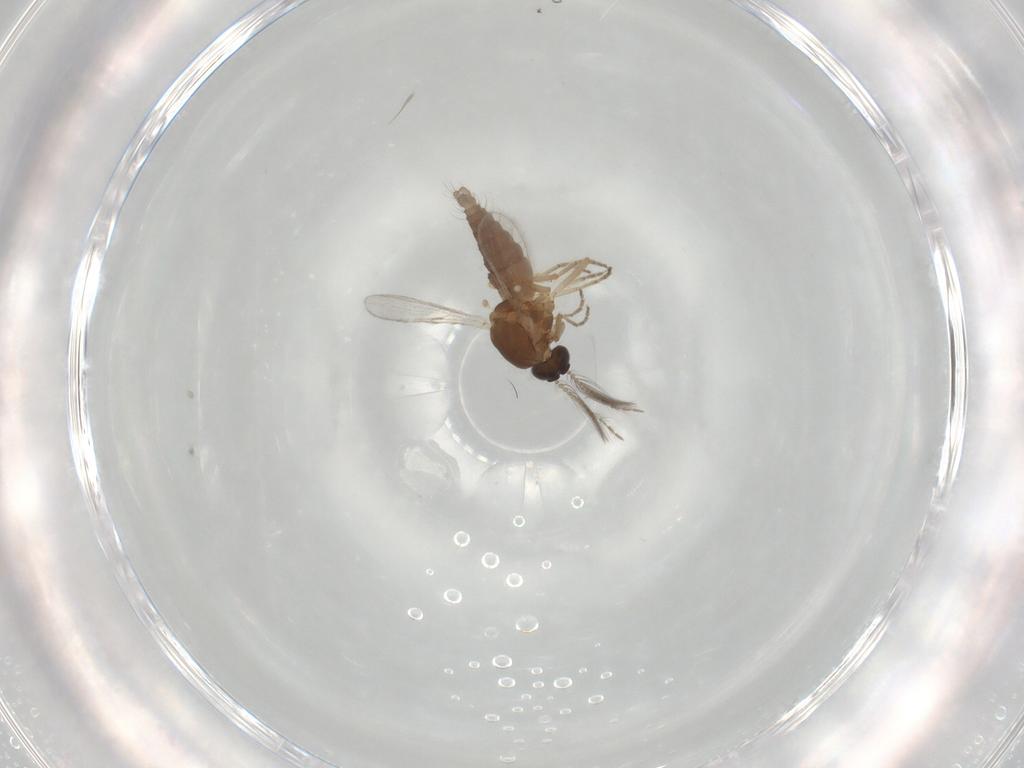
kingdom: Animalia
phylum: Arthropoda
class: Insecta
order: Diptera
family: Ceratopogonidae
